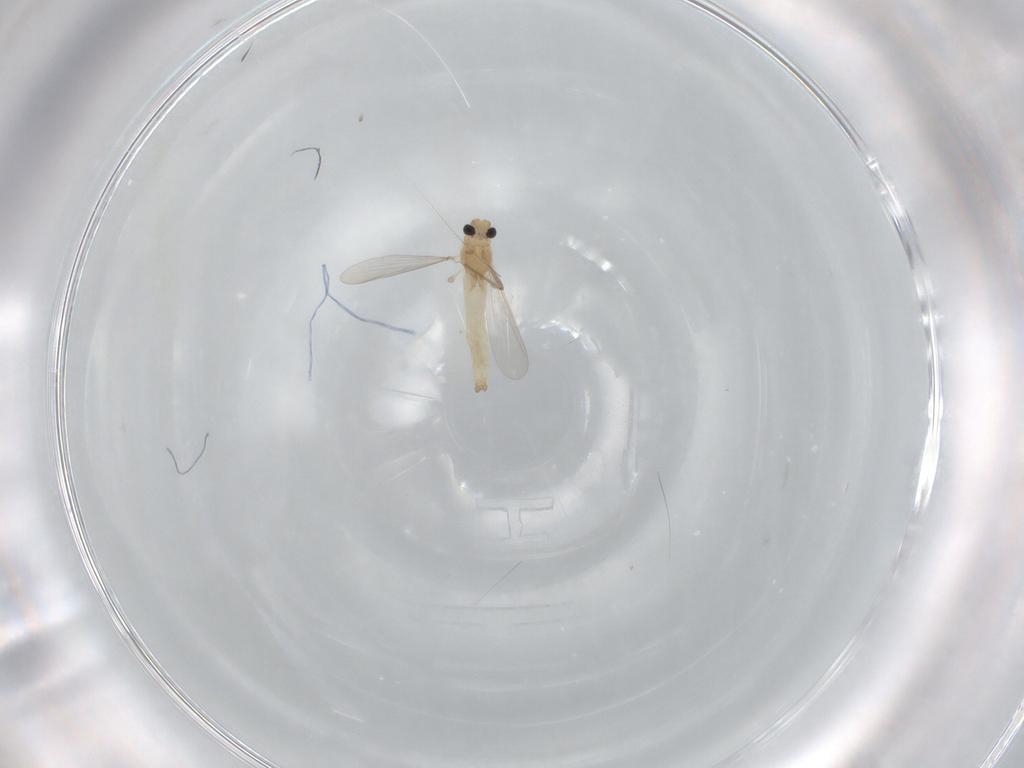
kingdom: Animalia
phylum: Arthropoda
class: Insecta
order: Diptera
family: Chironomidae
